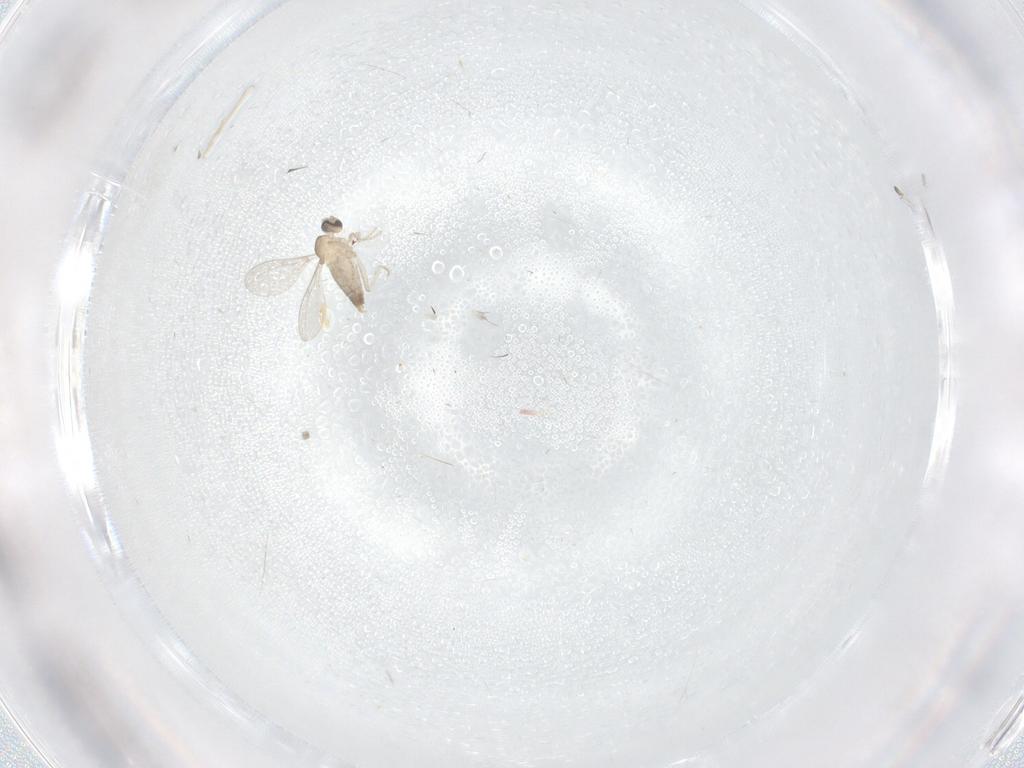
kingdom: Animalia
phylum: Arthropoda
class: Insecta
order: Diptera
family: Cecidomyiidae
